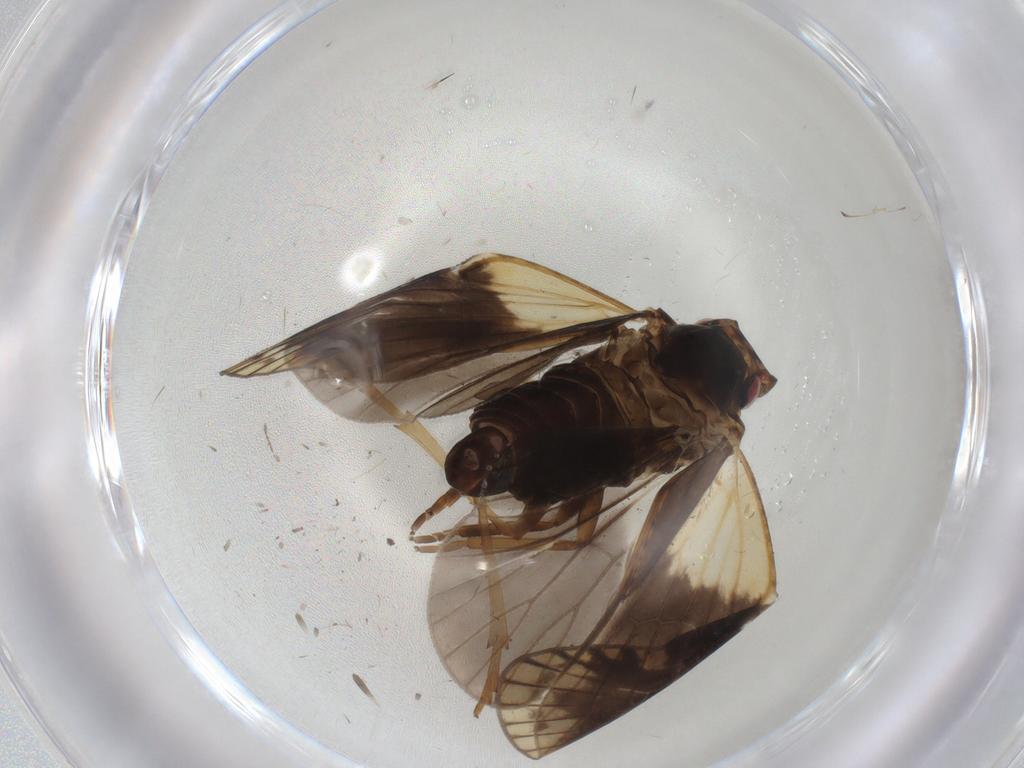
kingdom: Animalia
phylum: Arthropoda
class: Insecta
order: Hemiptera
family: Cixiidae
